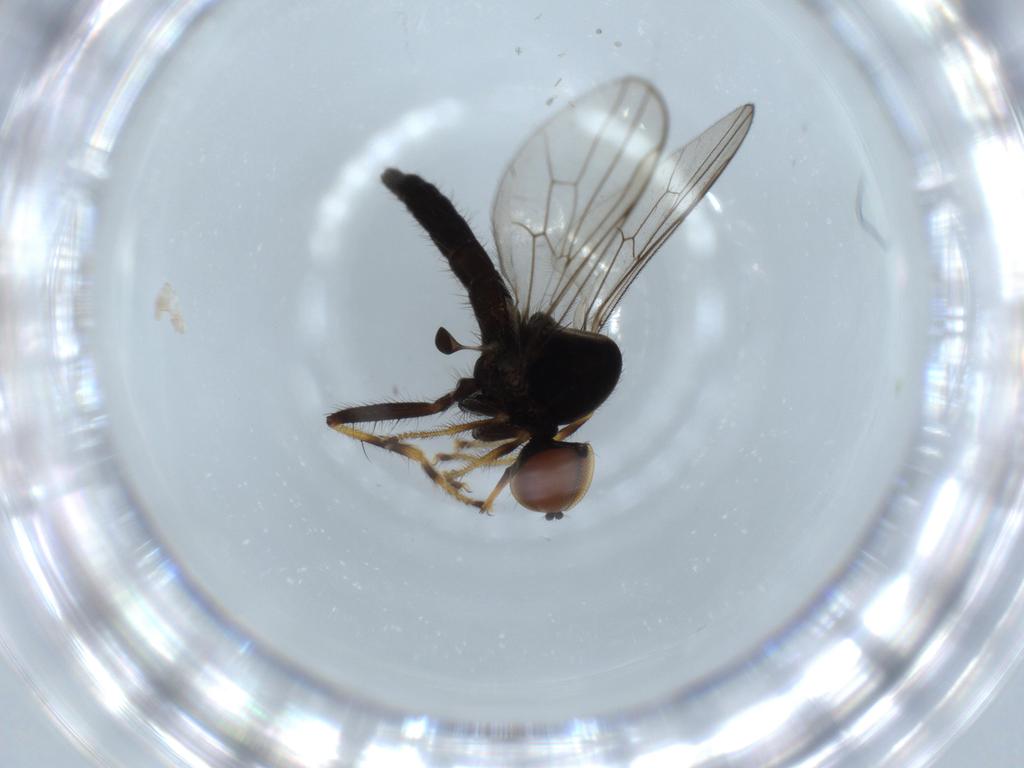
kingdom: Animalia
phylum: Arthropoda
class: Insecta
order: Diptera
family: Hybotidae
